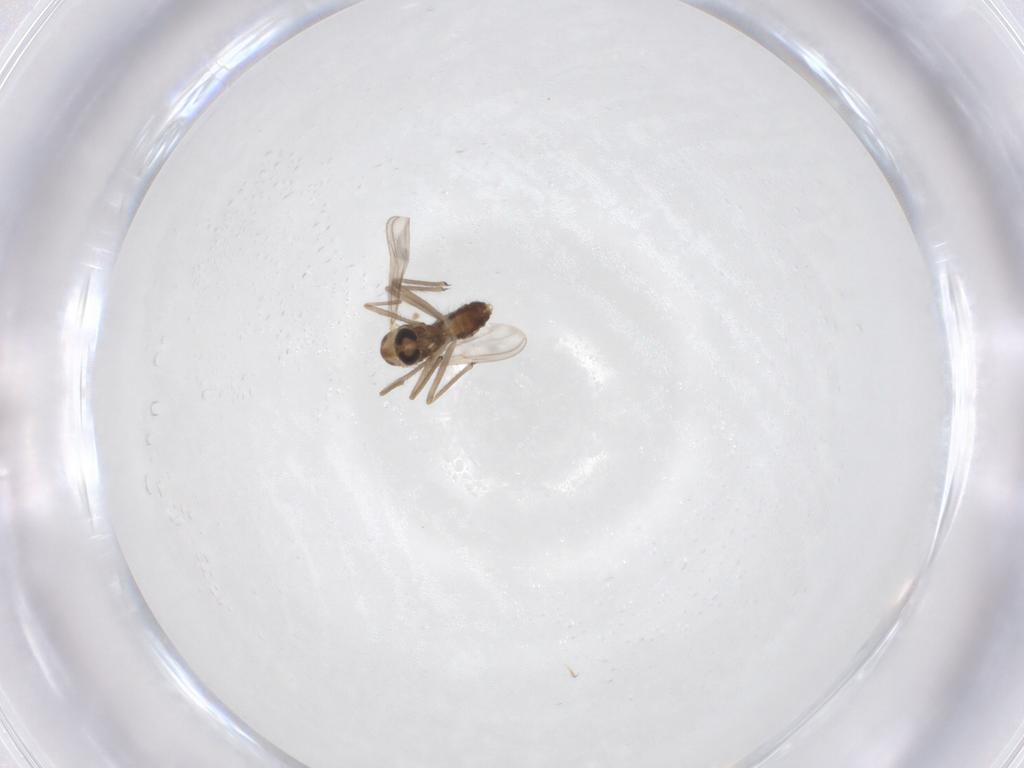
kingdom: Animalia
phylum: Arthropoda
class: Insecta
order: Diptera
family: Chironomidae
